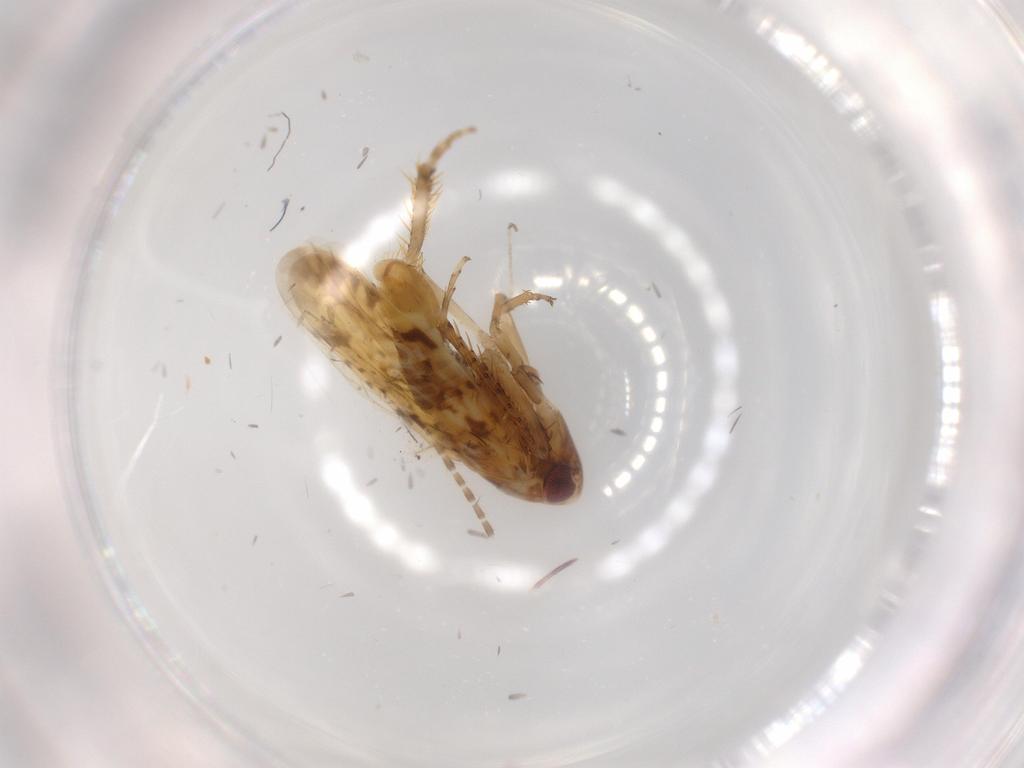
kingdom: Animalia
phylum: Arthropoda
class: Insecta
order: Hemiptera
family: Cicadellidae
